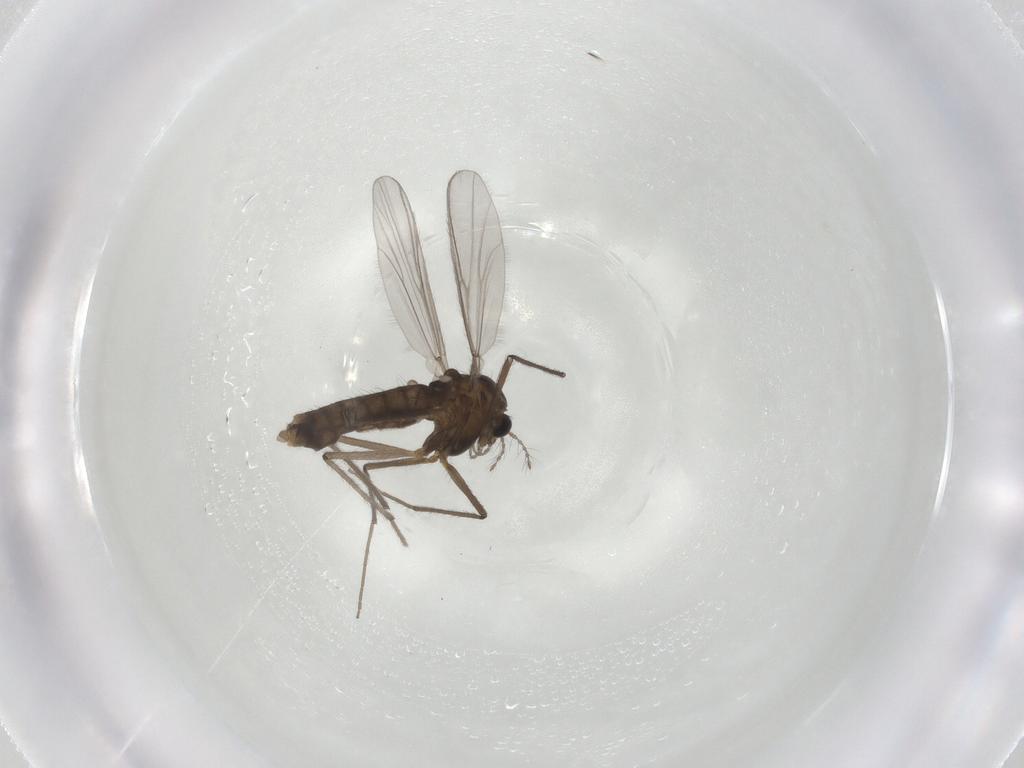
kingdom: Animalia
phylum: Arthropoda
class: Insecta
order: Diptera
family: Chironomidae
